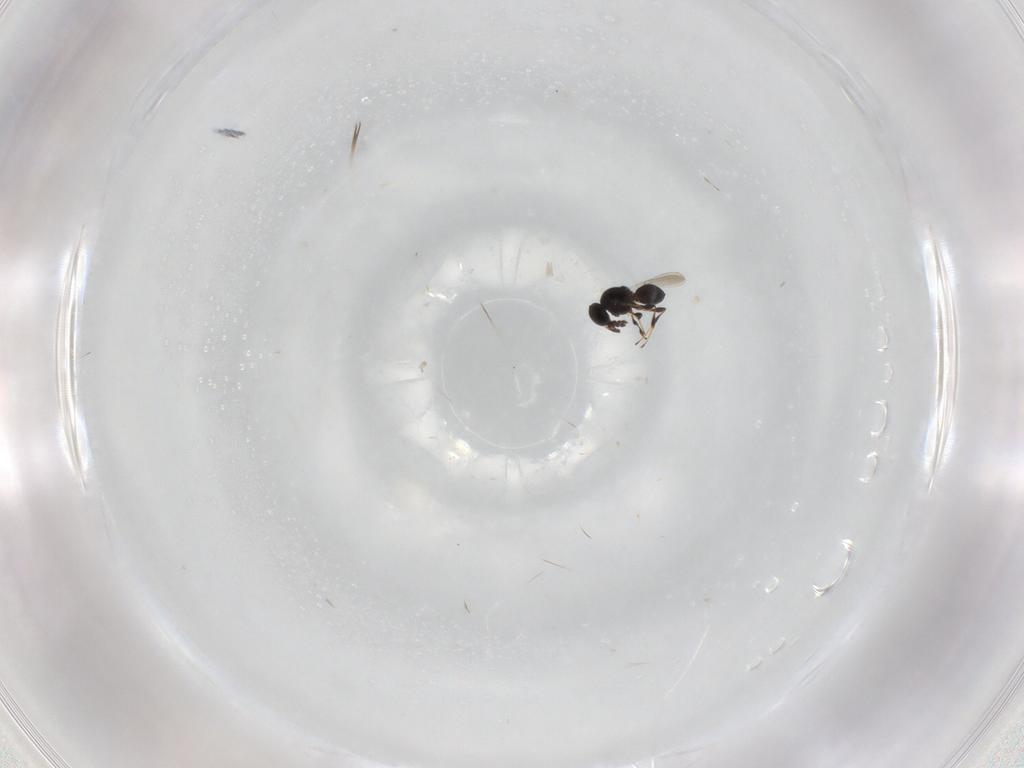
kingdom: Animalia
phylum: Arthropoda
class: Insecta
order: Hymenoptera
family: Platygastridae
